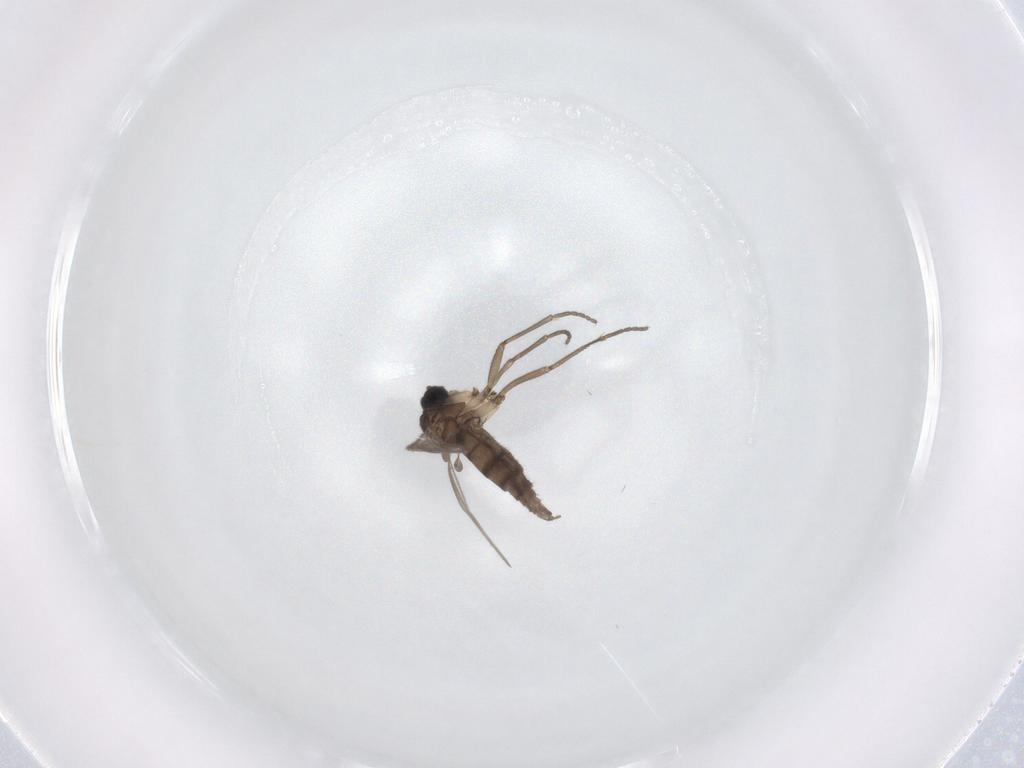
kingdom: Animalia
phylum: Arthropoda
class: Insecta
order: Diptera
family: Sciaridae
